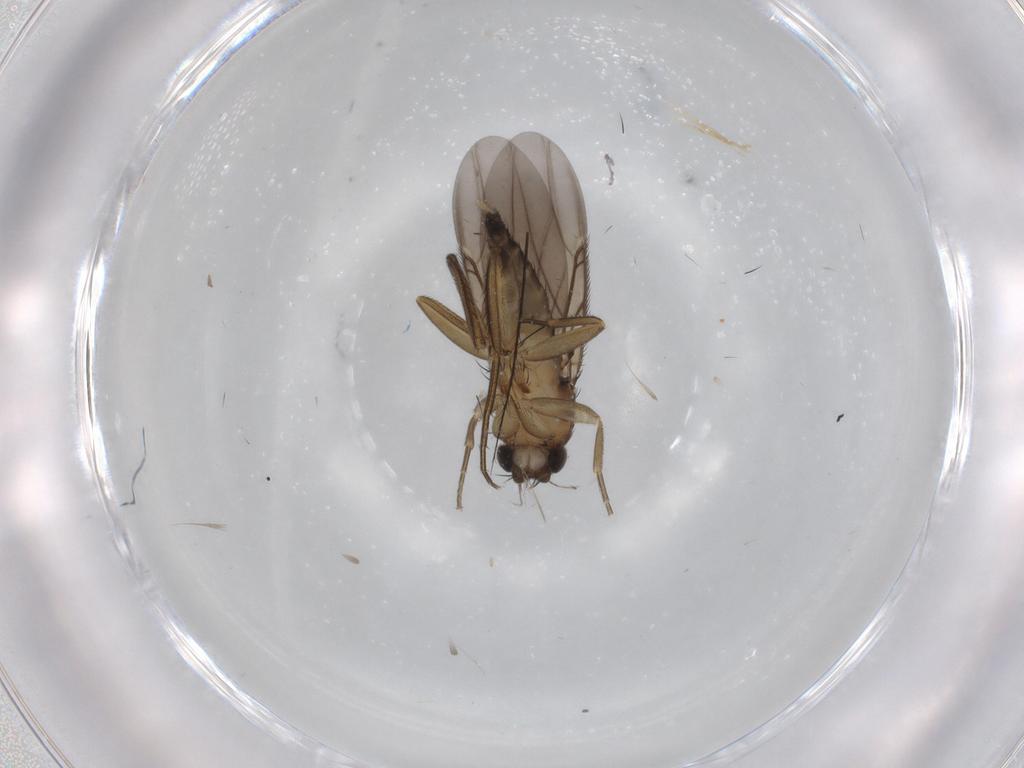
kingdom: Animalia
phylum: Arthropoda
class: Insecta
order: Diptera
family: Phoridae
